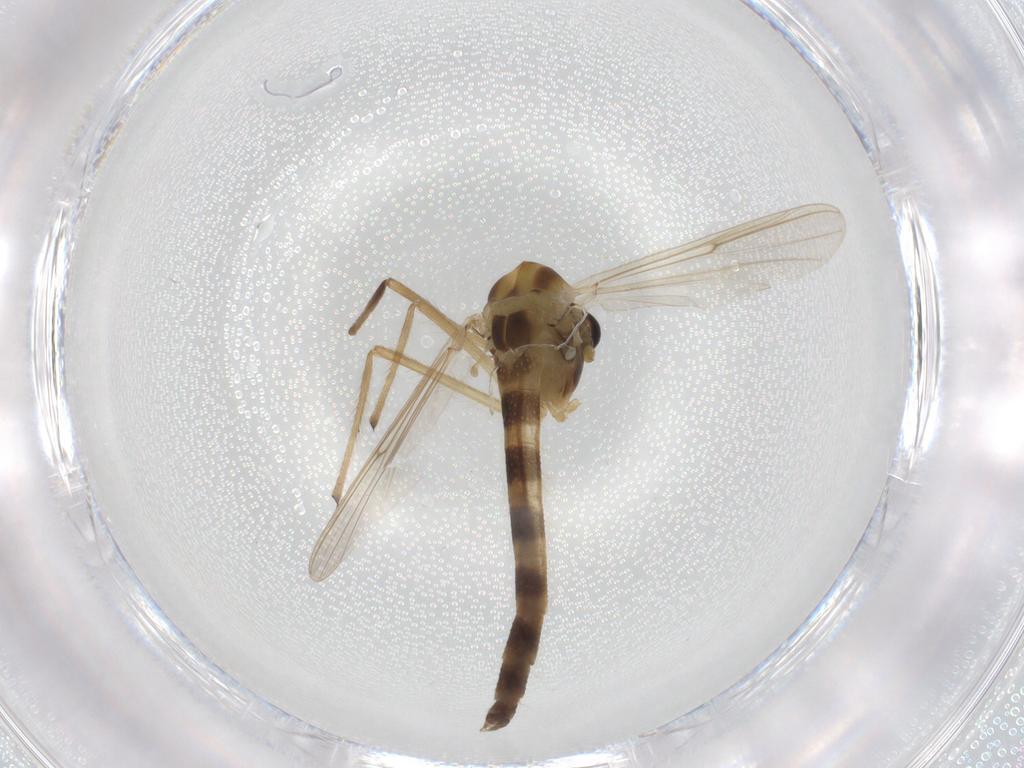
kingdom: Animalia
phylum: Arthropoda
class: Insecta
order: Diptera
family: Chironomidae
